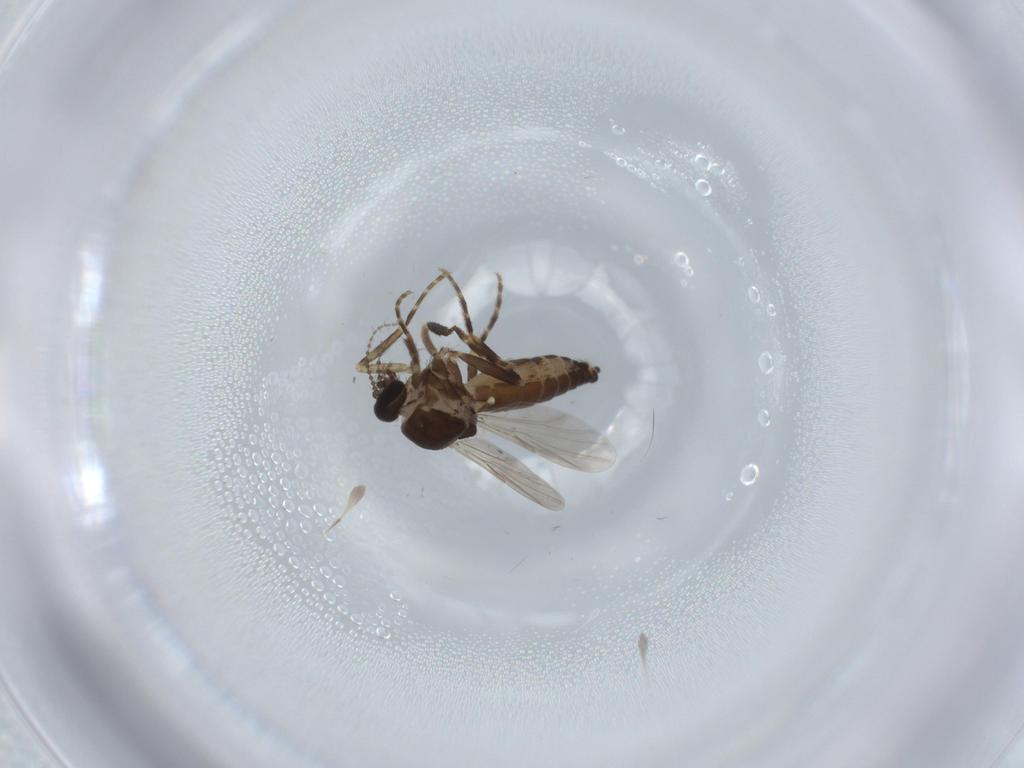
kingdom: Animalia
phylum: Arthropoda
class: Insecta
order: Diptera
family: Ceratopogonidae
